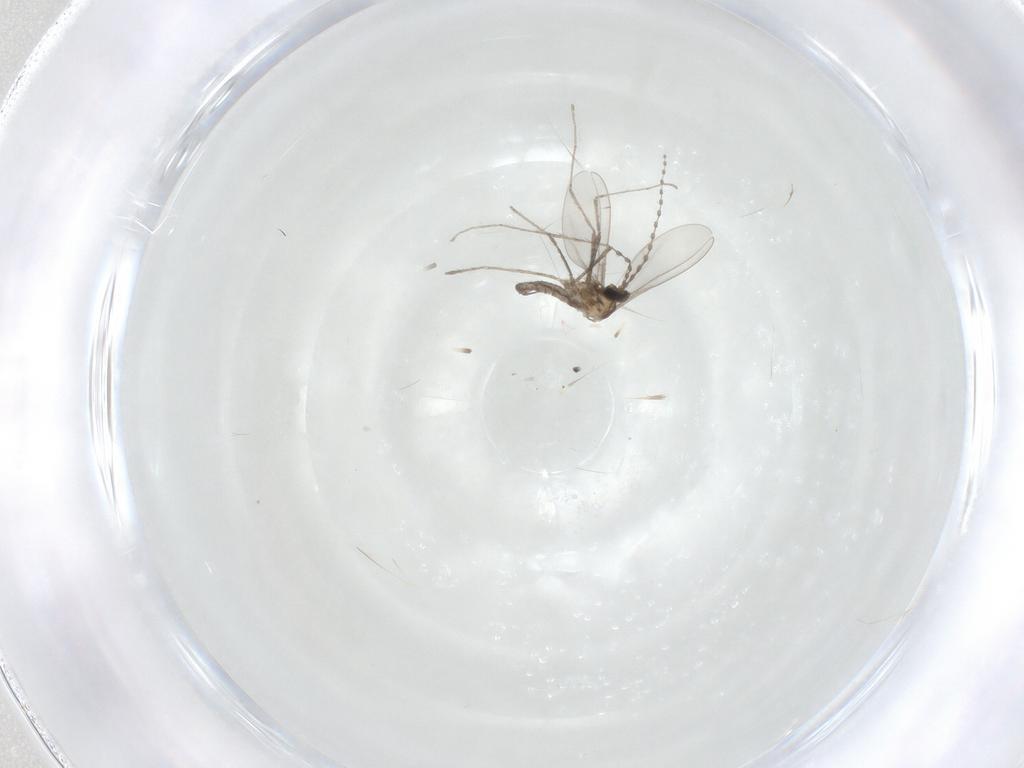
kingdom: Animalia
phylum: Arthropoda
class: Insecta
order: Diptera
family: Cecidomyiidae
